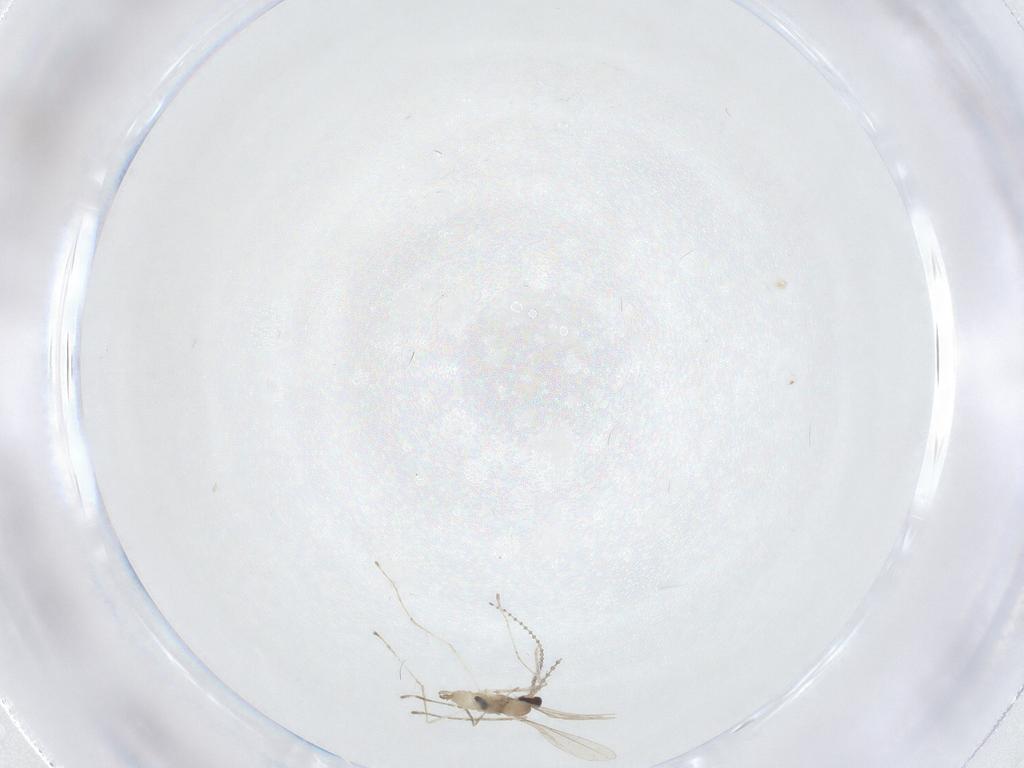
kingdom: Animalia
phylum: Arthropoda
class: Insecta
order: Diptera
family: Cecidomyiidae
